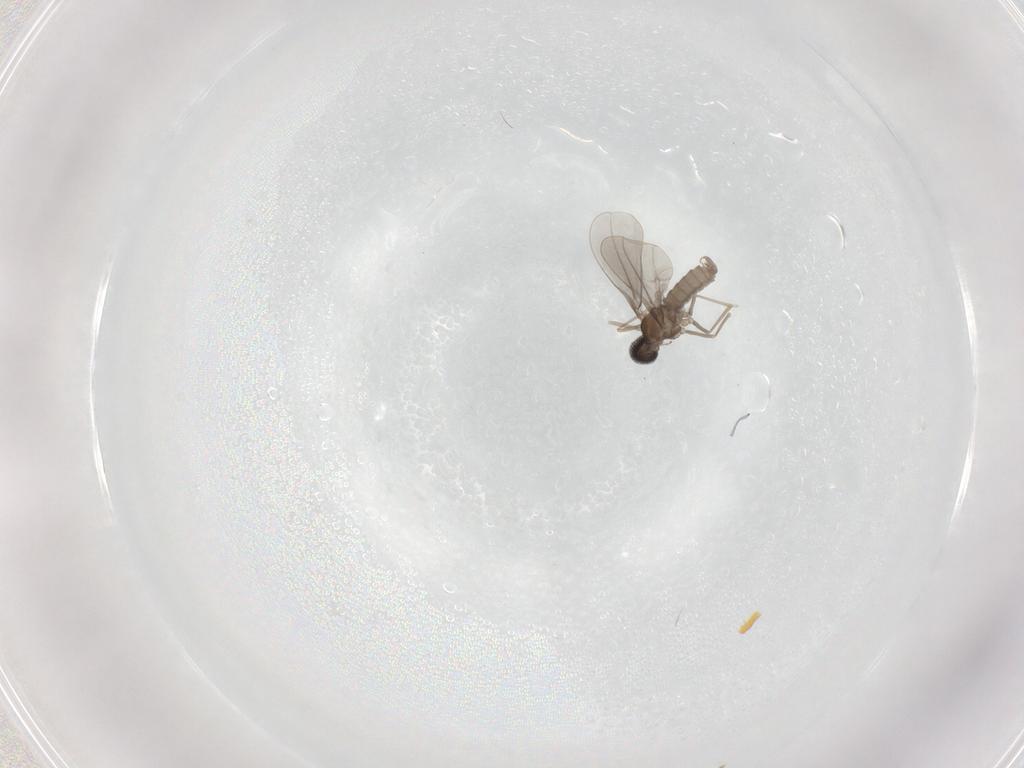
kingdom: Animalia
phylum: Arthropoda
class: Insecta
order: Diptera
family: Cecidomyiidae
